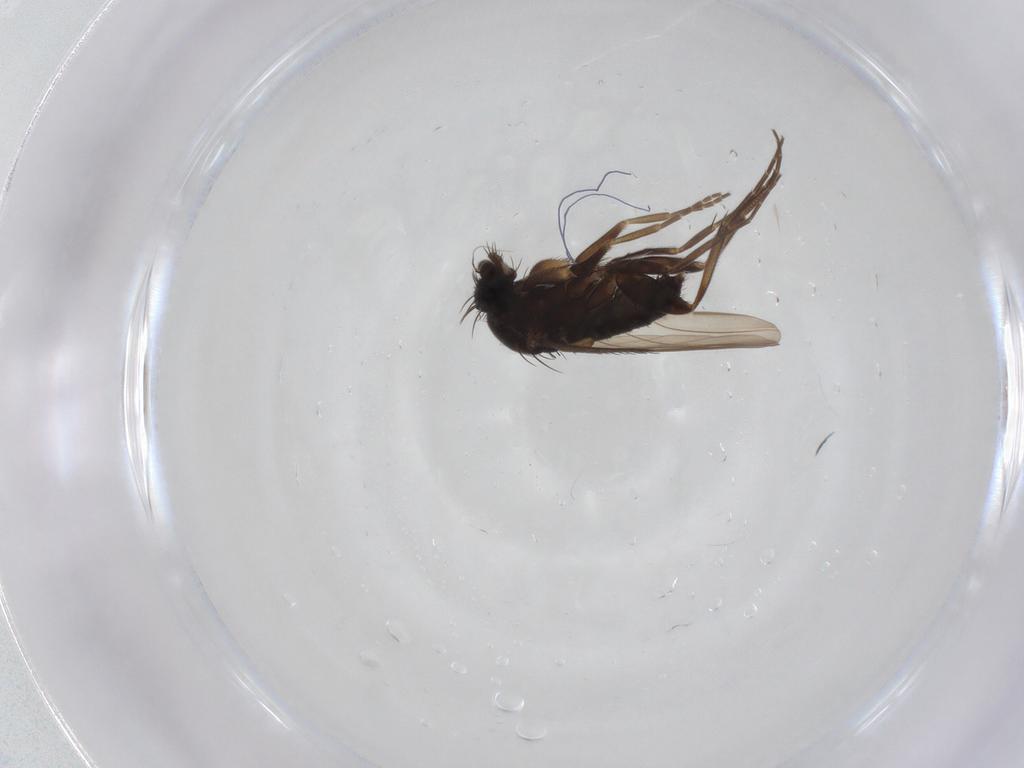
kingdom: Animalia
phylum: Arthropoda
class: Insecta
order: Diptera
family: Phoridae
